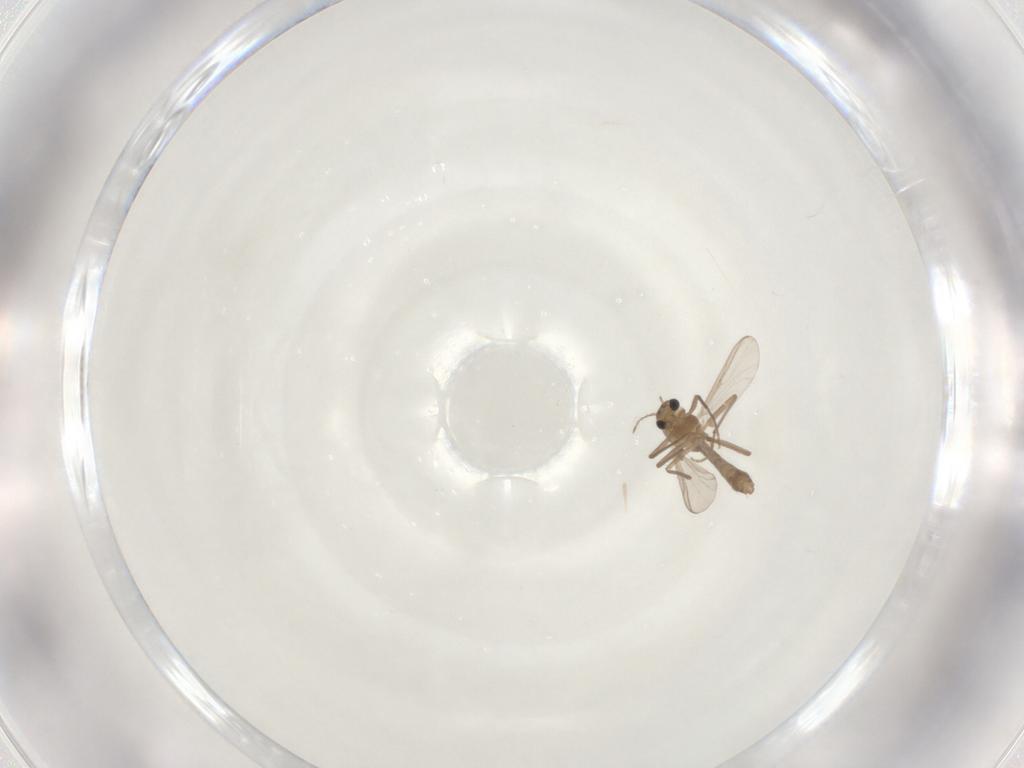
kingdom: Animalia
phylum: Arthropoda
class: Insecta
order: Diptera
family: Chironomidae
